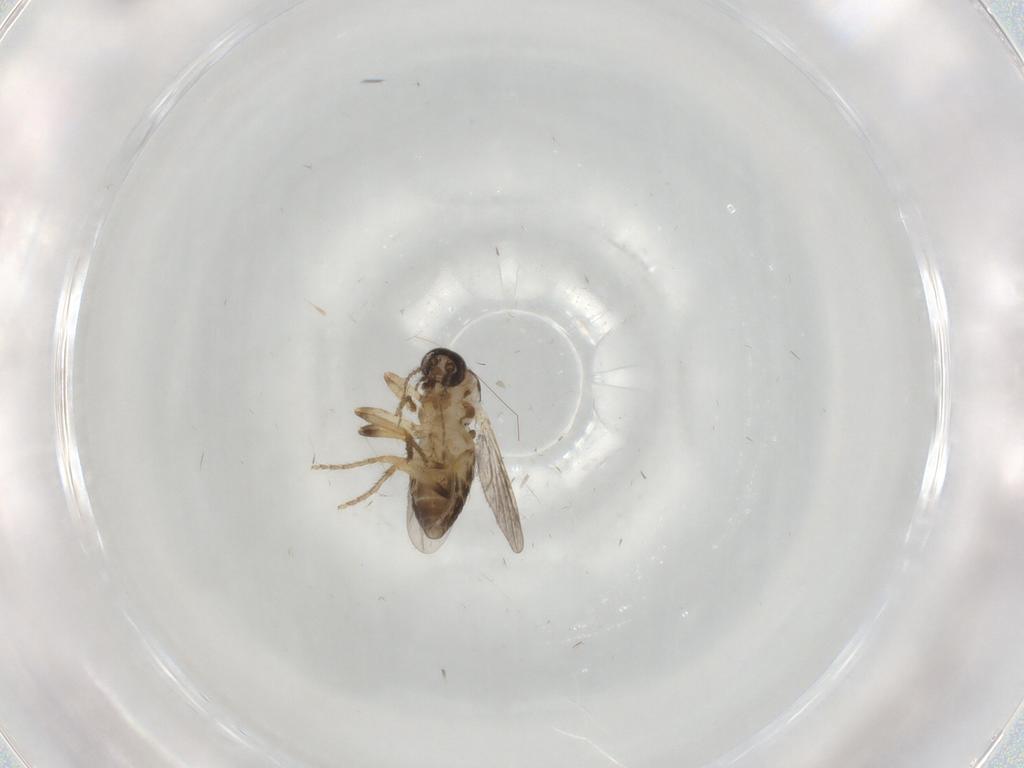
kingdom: Animalia
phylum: Arthropoda
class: Insecta
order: Diptera
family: Ceratopogonidae
